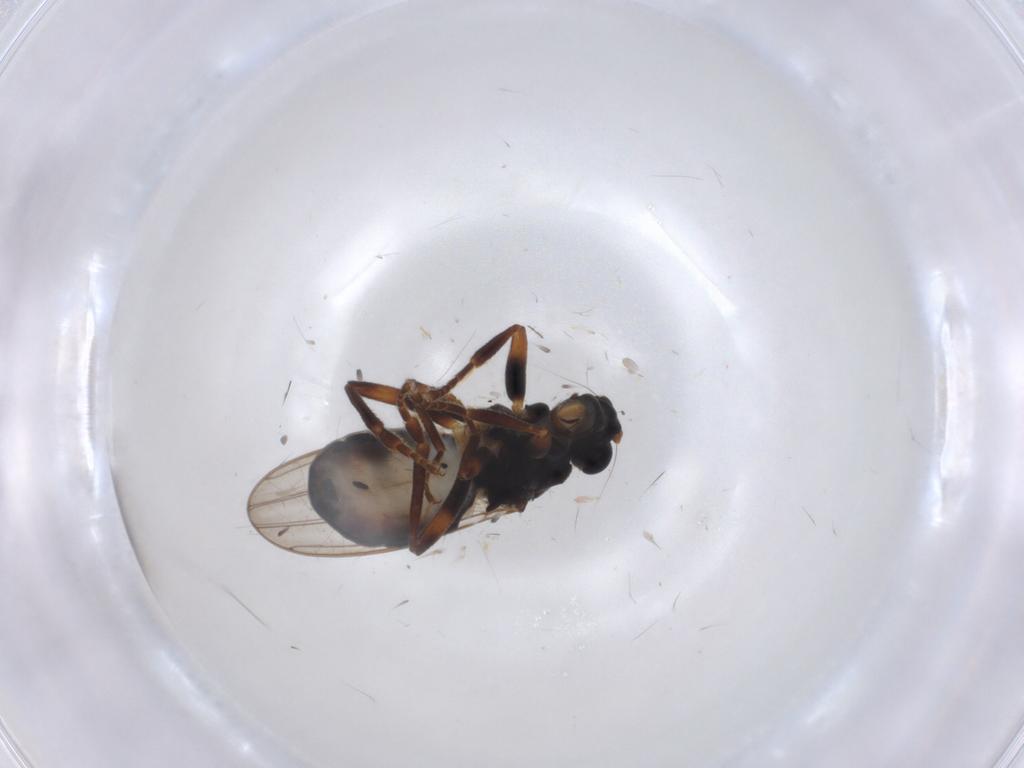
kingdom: Animalia
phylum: Arthropoda
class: Insecta
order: Diptera
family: Sphaeroceridae
